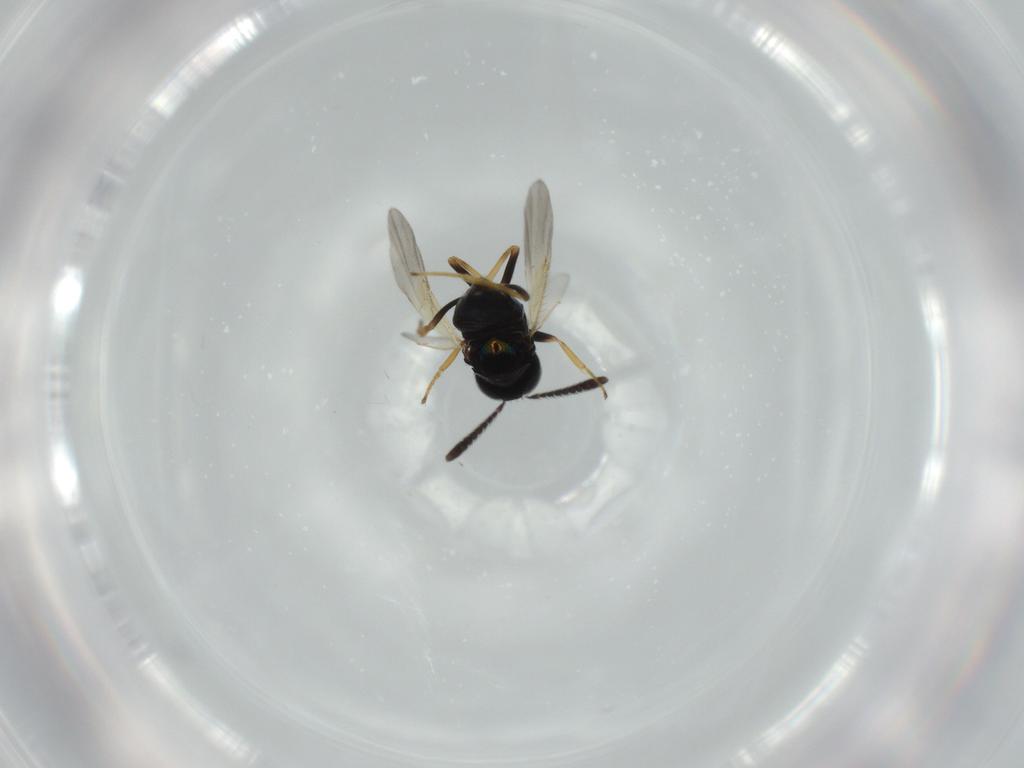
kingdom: Animalia
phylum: Arthropoda
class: Insecta
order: Hymenoptera
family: Encyrtidae
